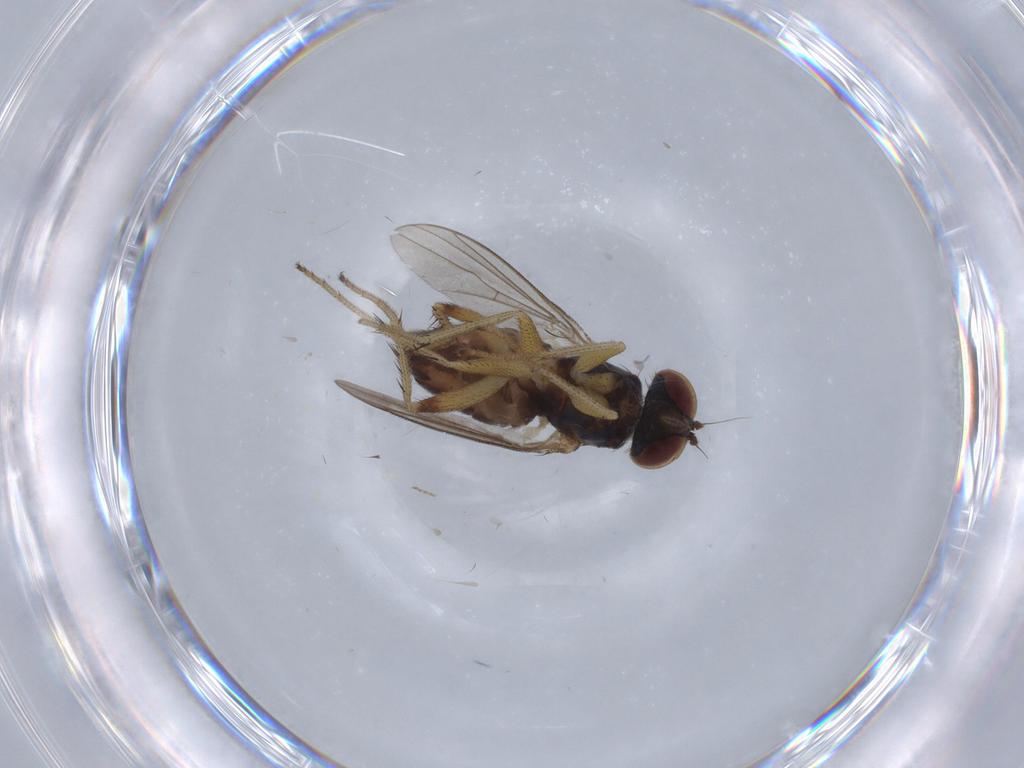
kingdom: Animalia
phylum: Arthropoda
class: Insecta
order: Diptera
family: Dolichopodidae
